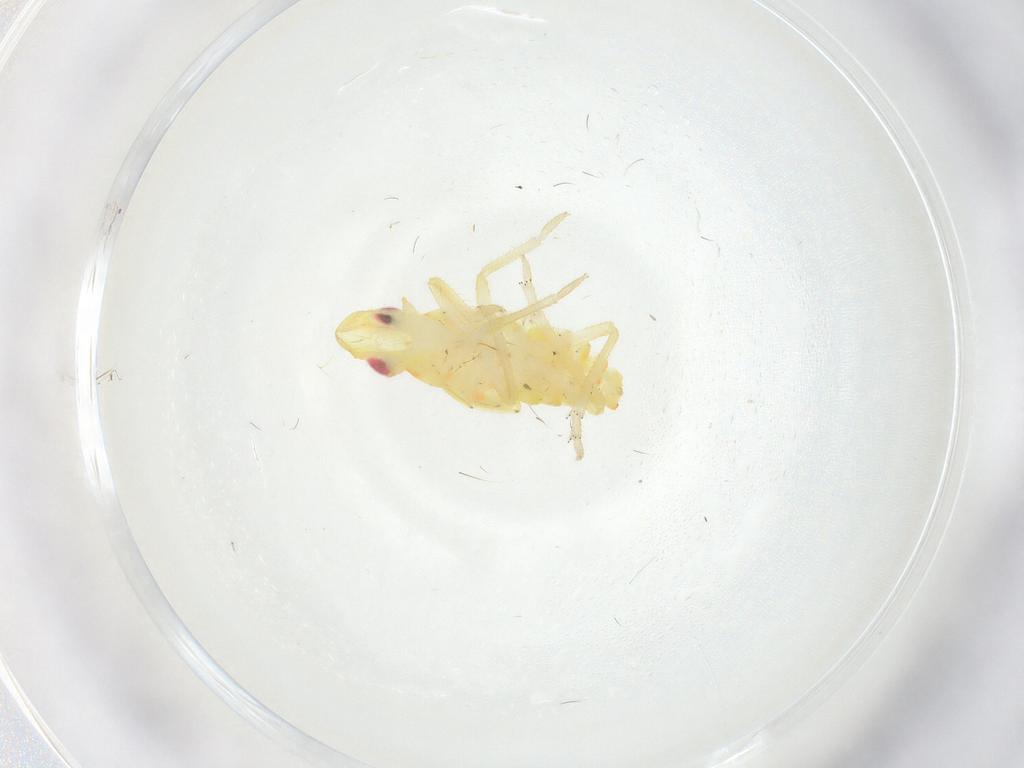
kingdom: Animalia
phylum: Arthropoda
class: Insecta
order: Hemiptera
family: Tropiduchidae
